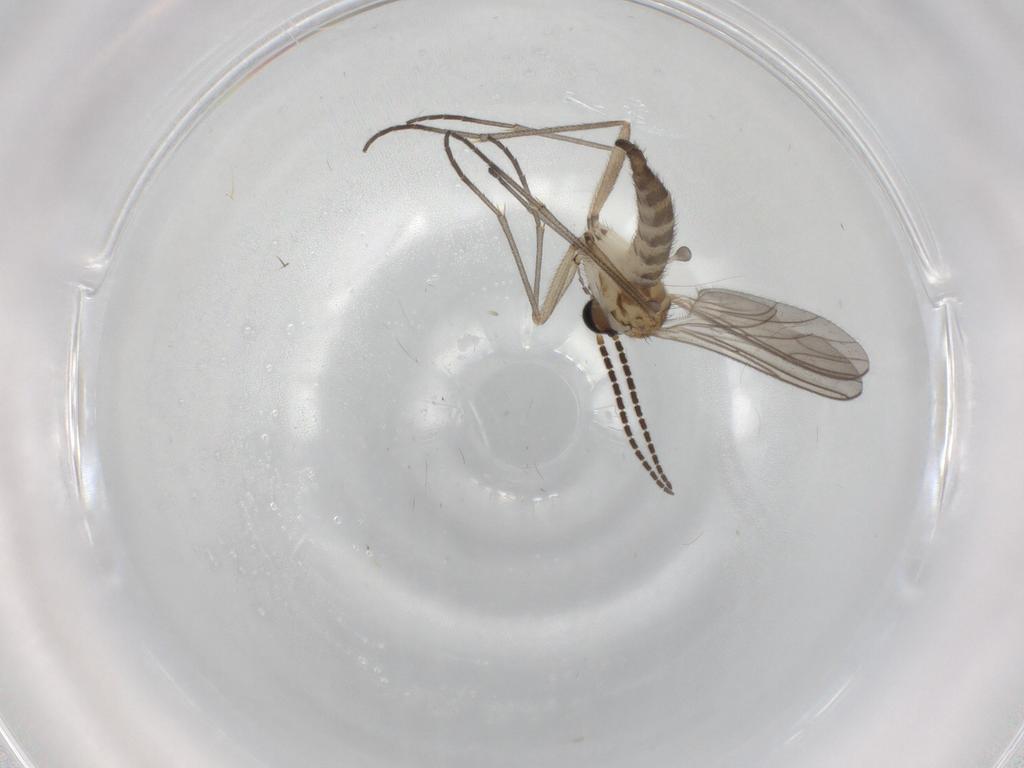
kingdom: Animalia
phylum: Arthropoda
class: Insecta
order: Diptera
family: Sciaridae
